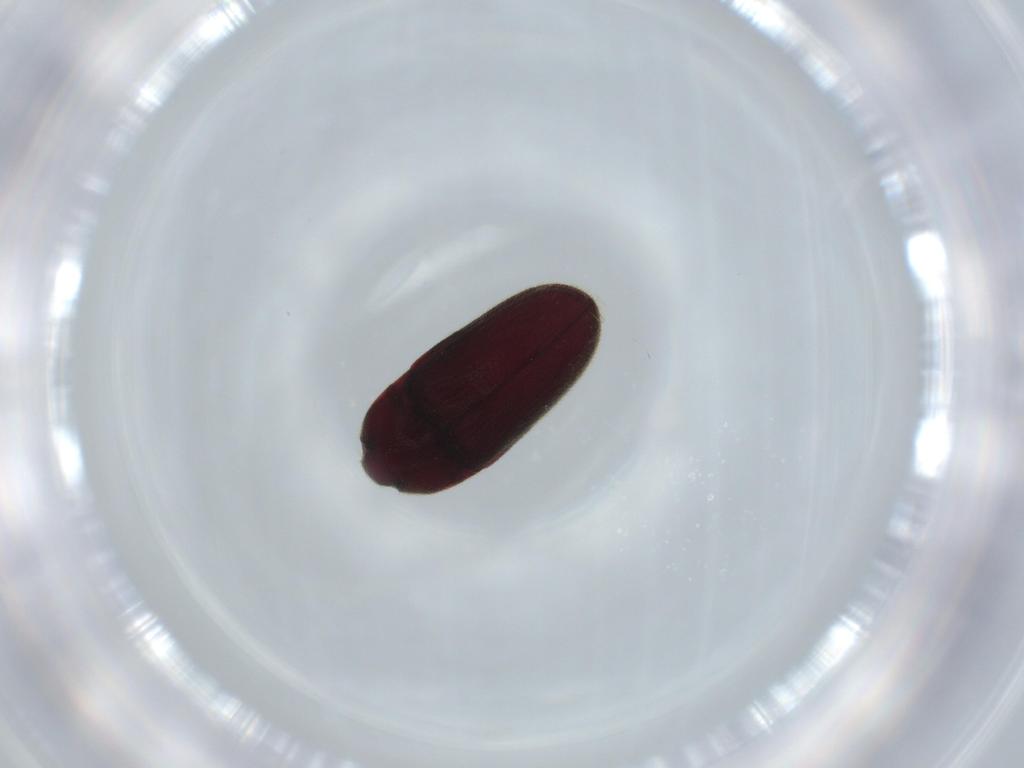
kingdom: Animalia
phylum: Arthropoda
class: Insecta
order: Coleoptera
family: Throscidae
